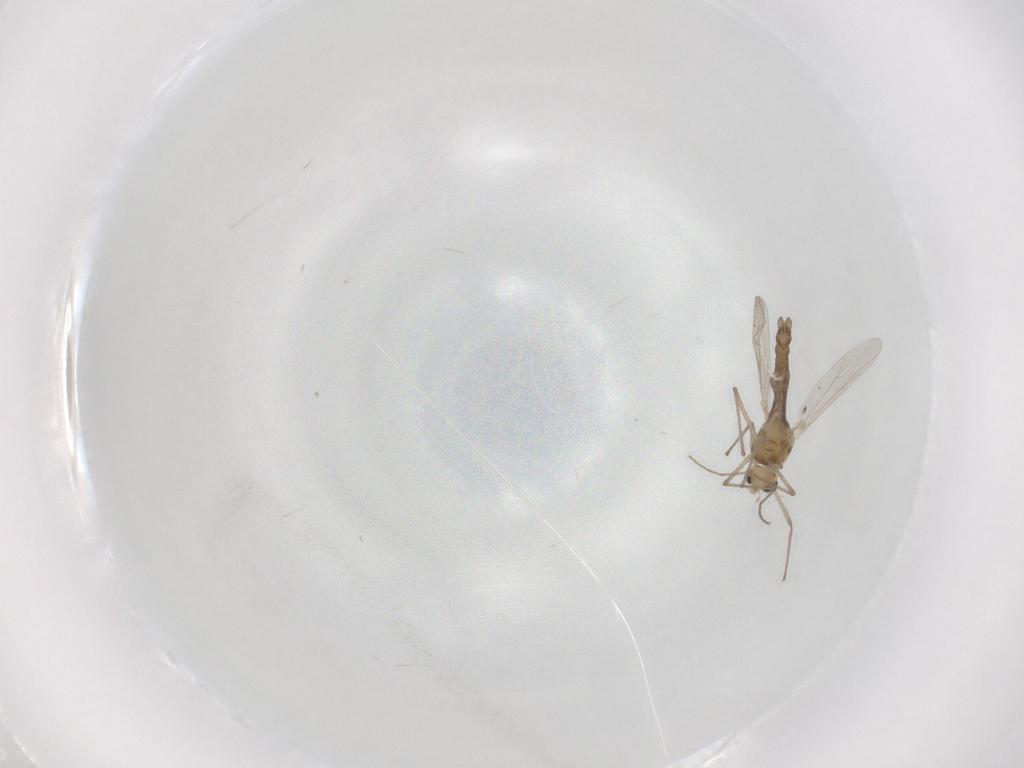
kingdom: Animalia
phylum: Arthropoda
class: Insecta
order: Diptera
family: Chironomidae
